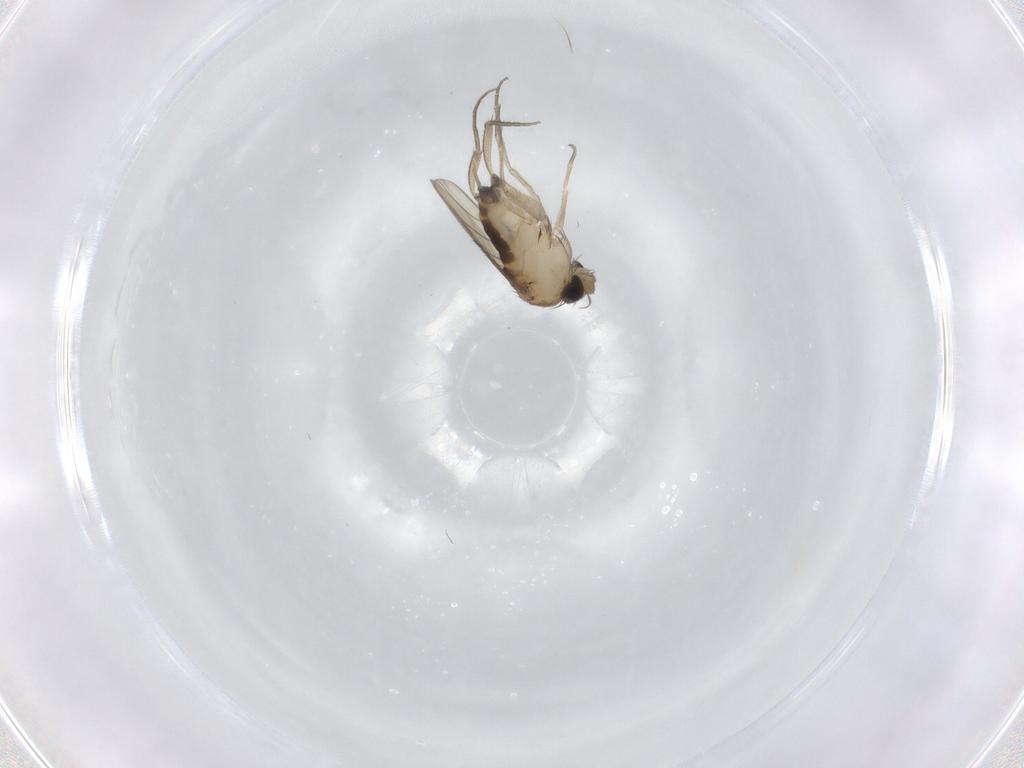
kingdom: Animalia
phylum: Arthropoda
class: Insecta
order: Diptera
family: Phoridae
